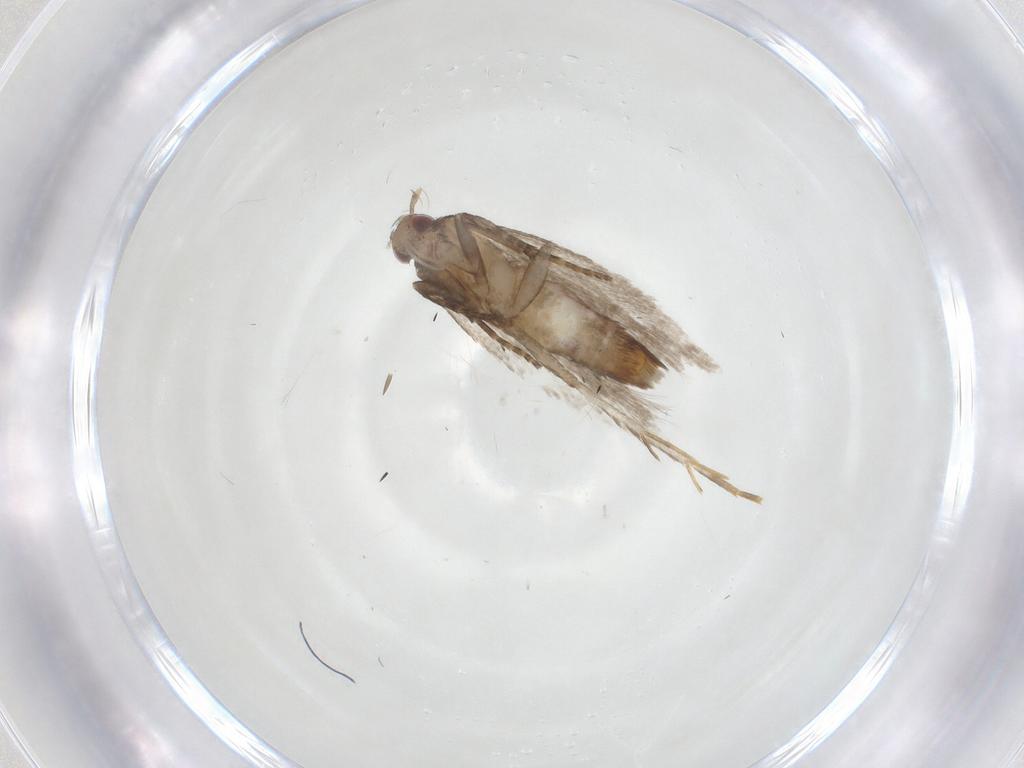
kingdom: Animalia
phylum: Arthropoda
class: Insecta
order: Lepidoptera
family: Gelechiidae
